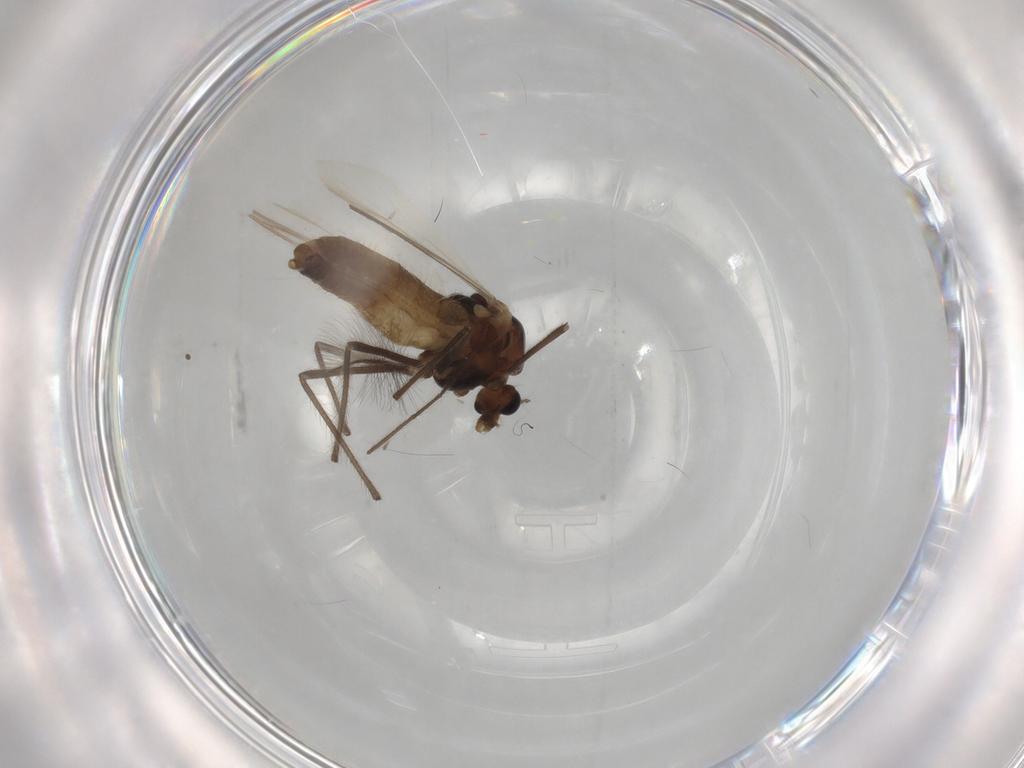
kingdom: Animalia
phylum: Arthropoda
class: Insecta
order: Diptera
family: Chironomidae
